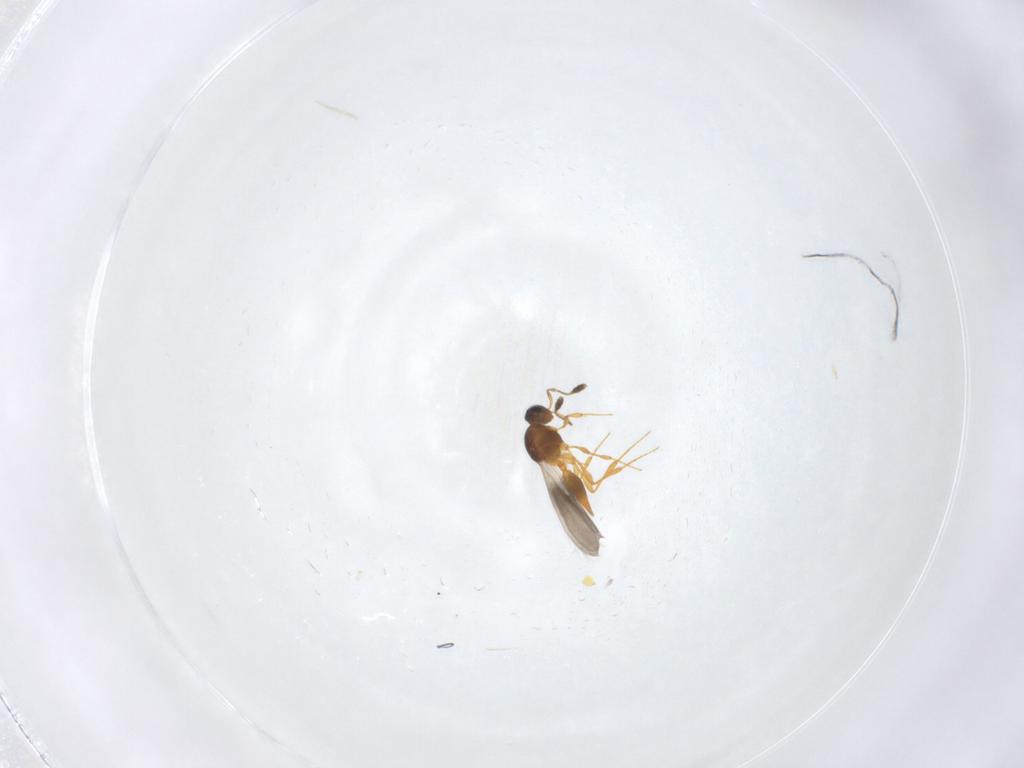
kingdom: Animalia
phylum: Arthropoda
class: Insecta
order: Hymenoptera
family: Platygastridae
